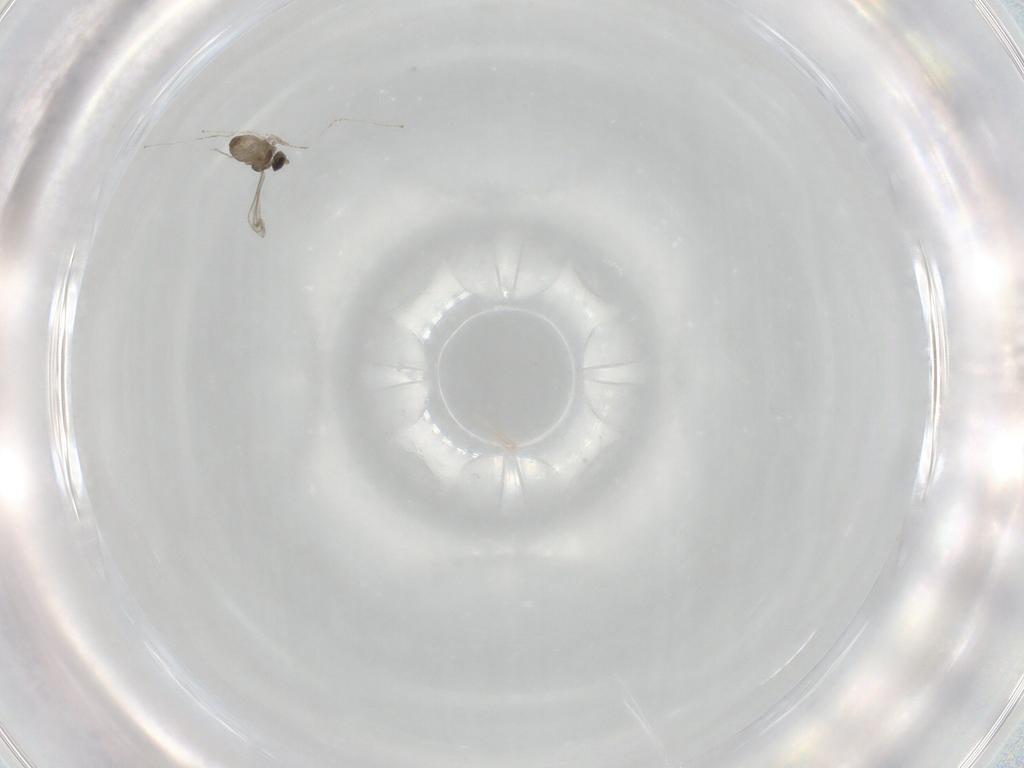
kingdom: Animalia
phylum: Arthropoda
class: Insecta
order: Diptera
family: Cecidomyiidae
